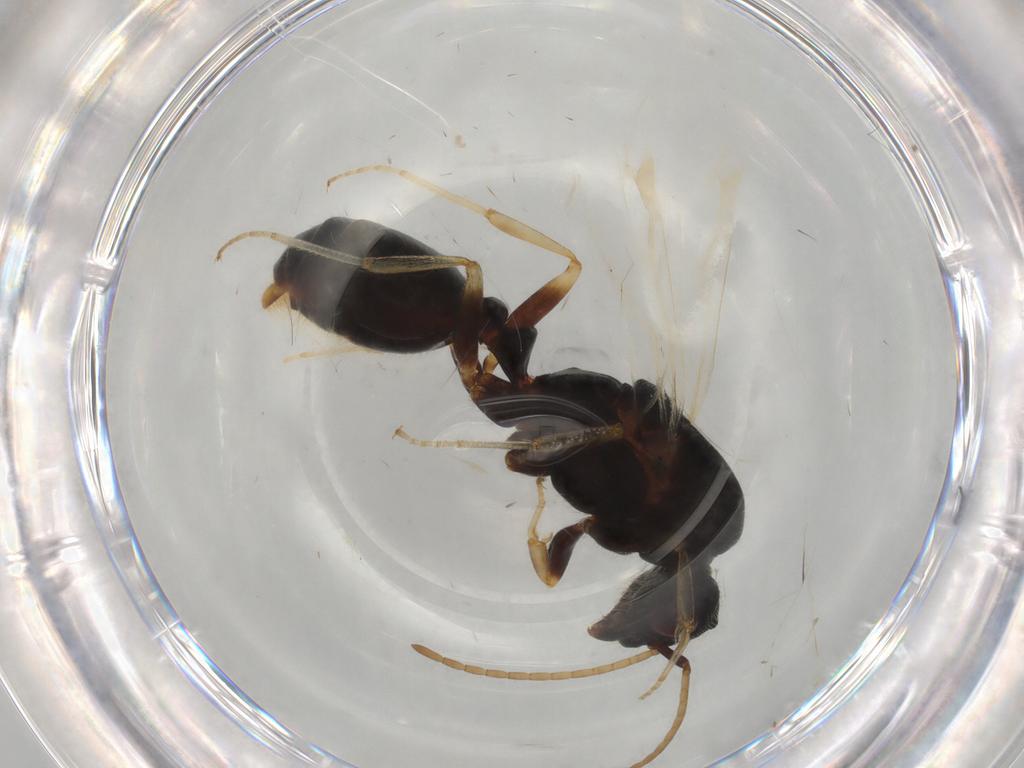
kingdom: Animalia
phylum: Arthropoda
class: Insecta
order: Hymenoptera
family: Formicidae
